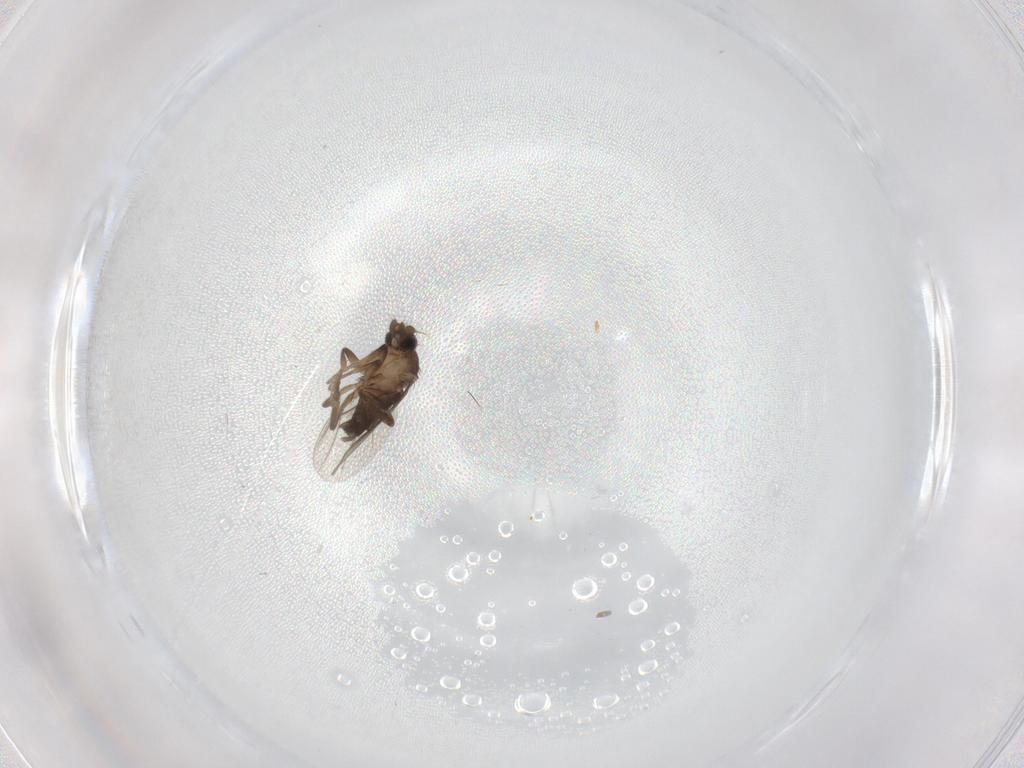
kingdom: Animalia
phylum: Arthropoda
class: Insecta
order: Diptera
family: Phoridae
